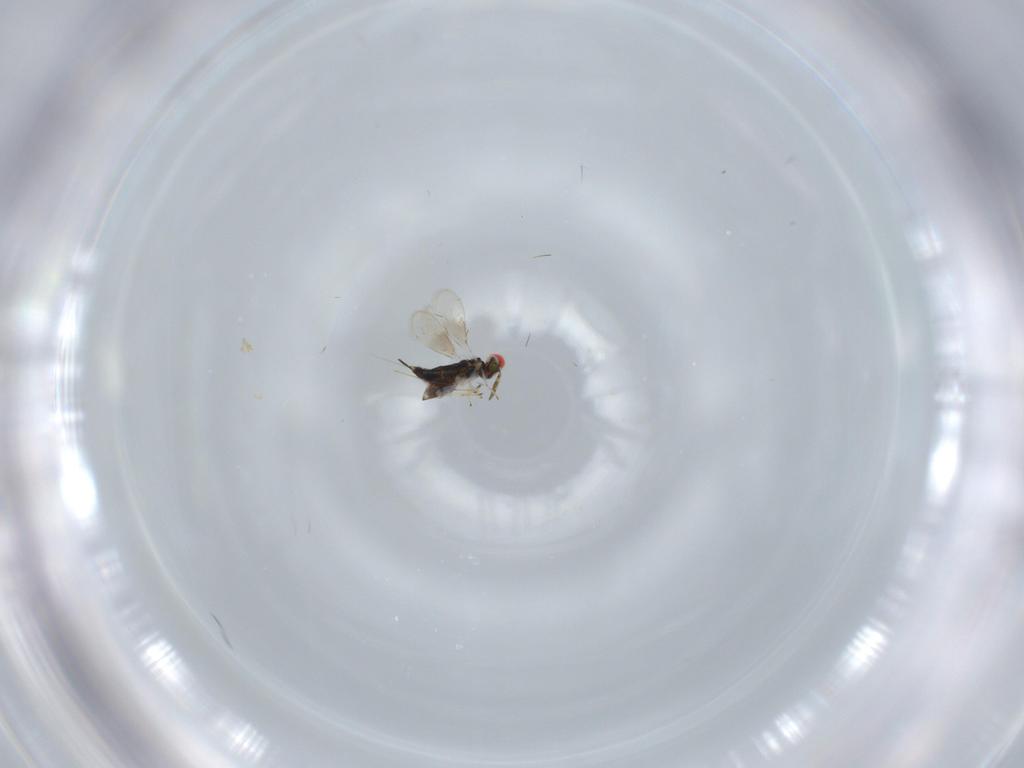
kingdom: Animalia
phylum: Arthropoda
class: Insecta
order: Hymenoptera
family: Azotidae
